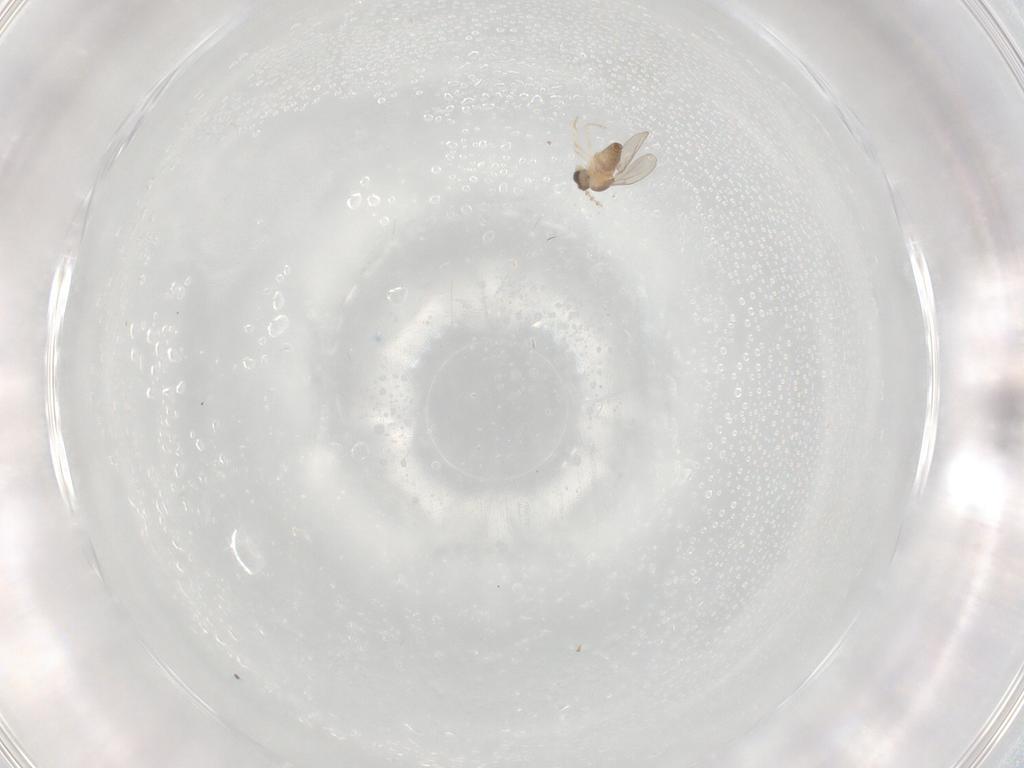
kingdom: Animalia
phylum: Arthropoda
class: Insecta
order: Diptera
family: Cecidomyiidae
